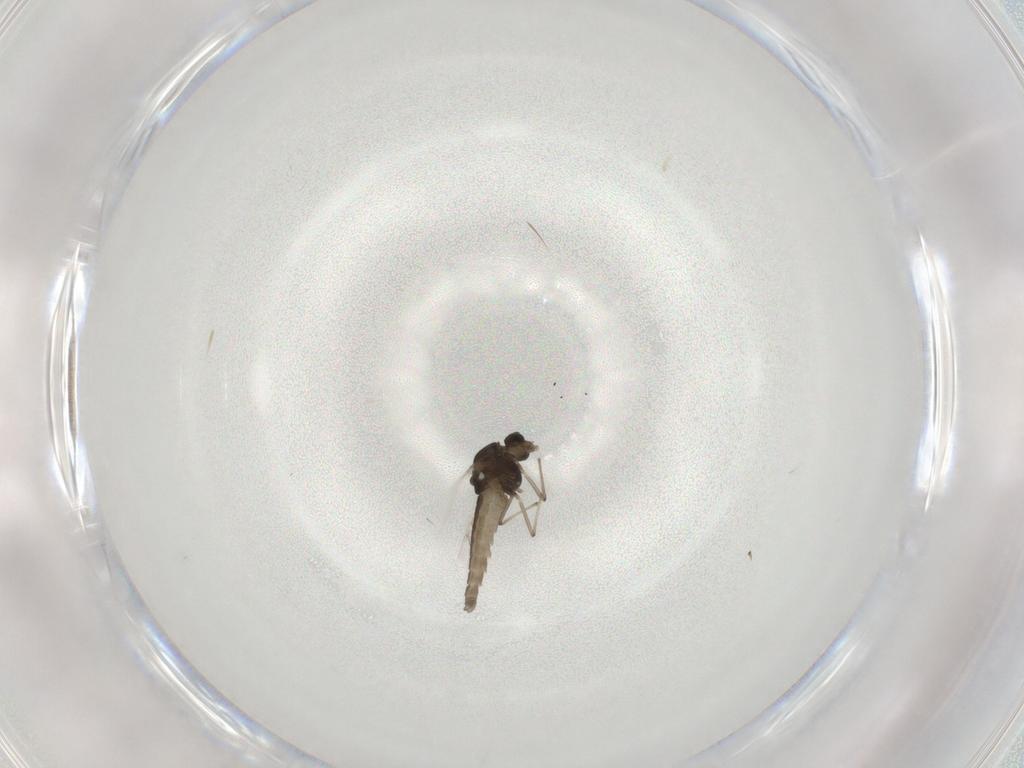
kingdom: Animalia
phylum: Arthropoda
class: Insecta
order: Diptera
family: Chironomidae
